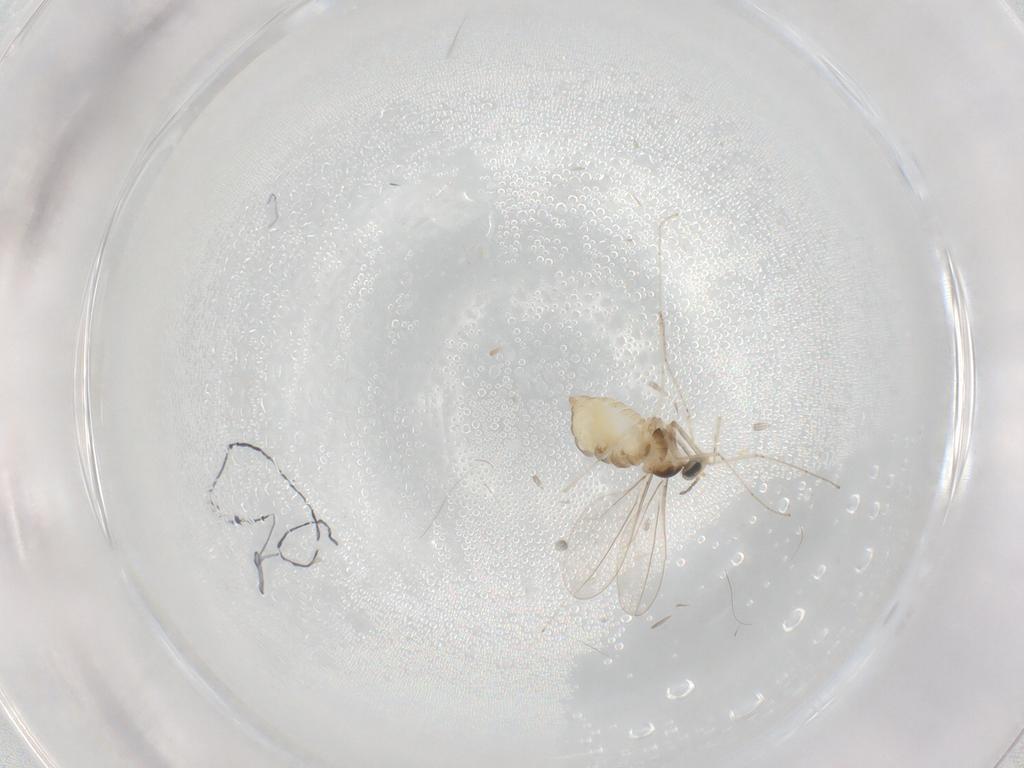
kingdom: Animalia
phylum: Arthropoda
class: Insecta
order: Diptera
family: Cecidomyiidae
